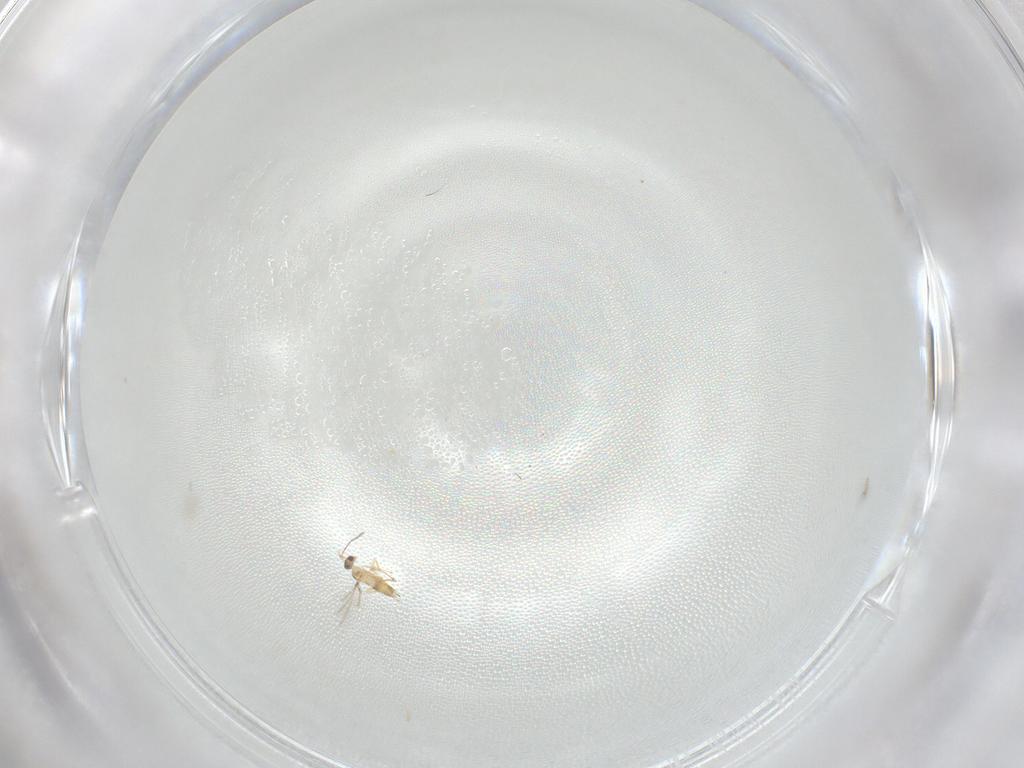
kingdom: Animalia
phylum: Arthropoda
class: Insecta
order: Hymenoptera
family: Mymaridae
